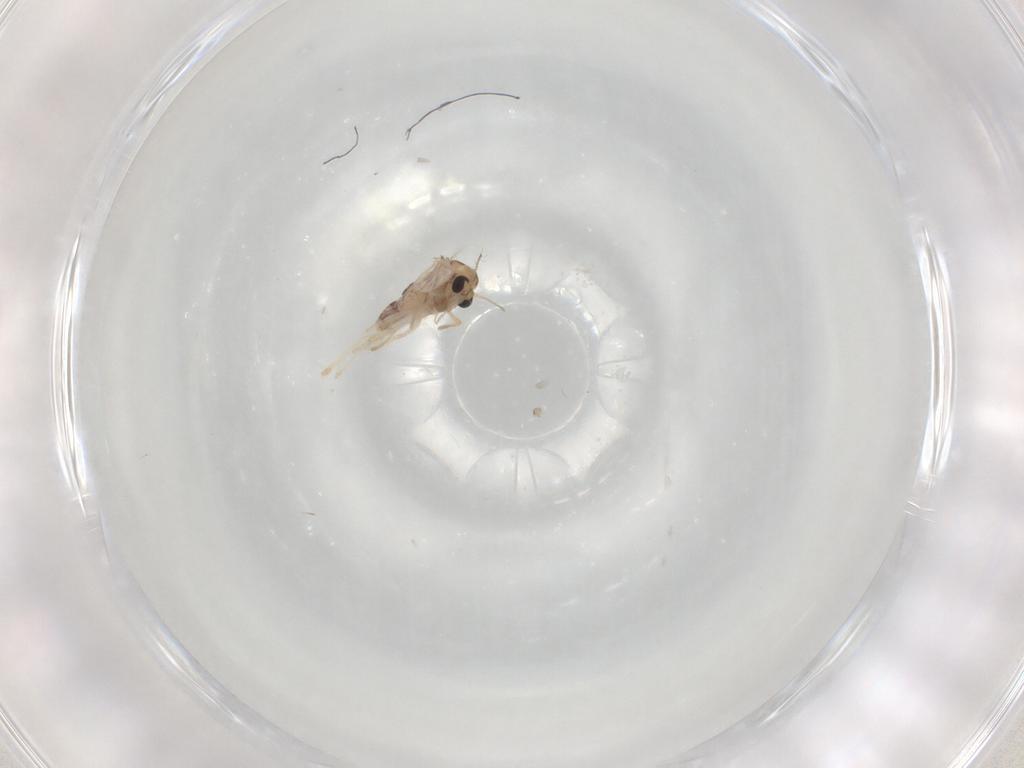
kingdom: Animalia
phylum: Arthropoda
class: Insecta
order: Diptera
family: Chironomidae
